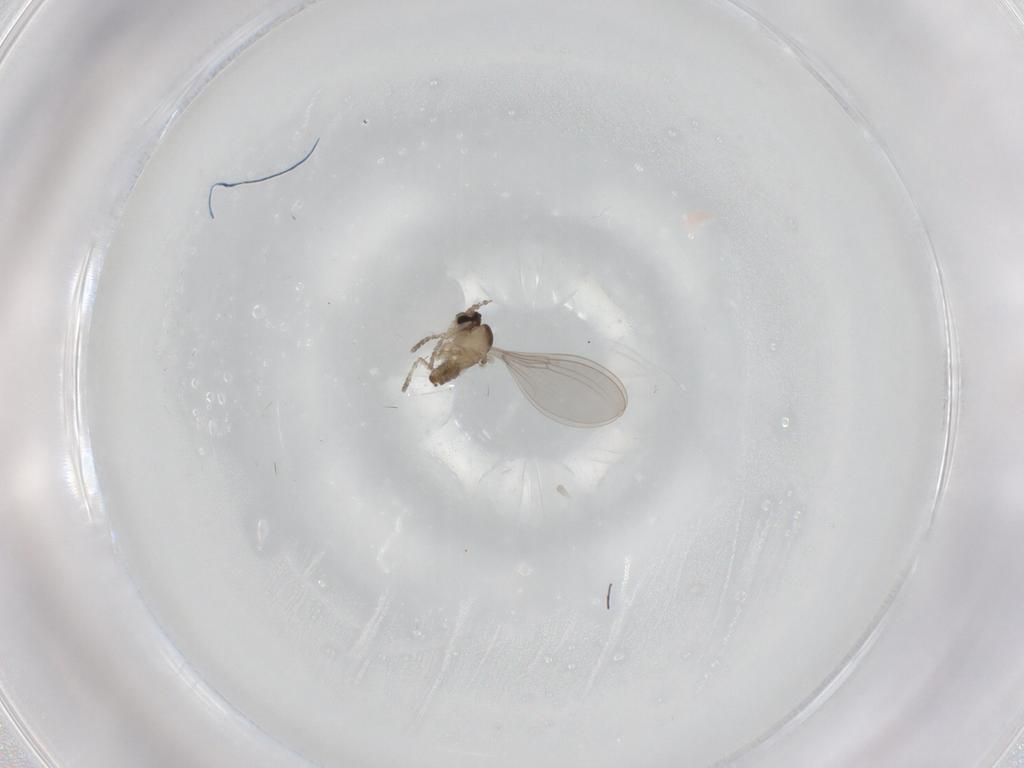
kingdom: Animalia
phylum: Arthropoda
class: Insecta
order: Diptera
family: Cecidomyiidae
